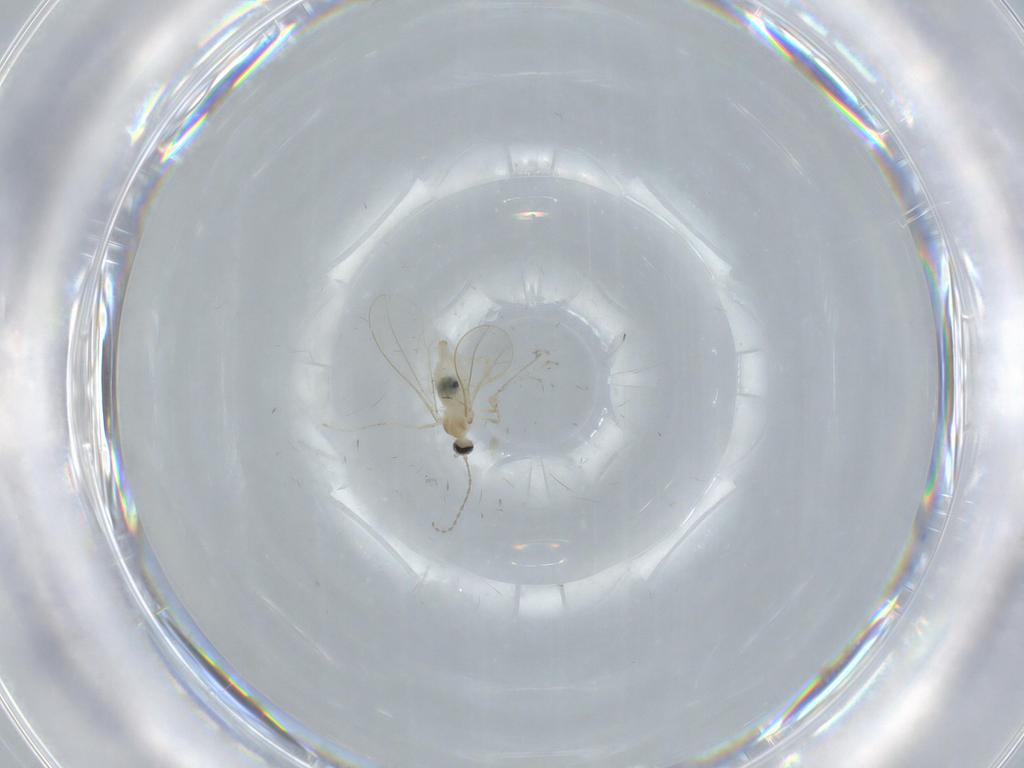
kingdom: Animalia
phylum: Arthropoda
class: Insecta
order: Diptera
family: Cecidomyiidae
